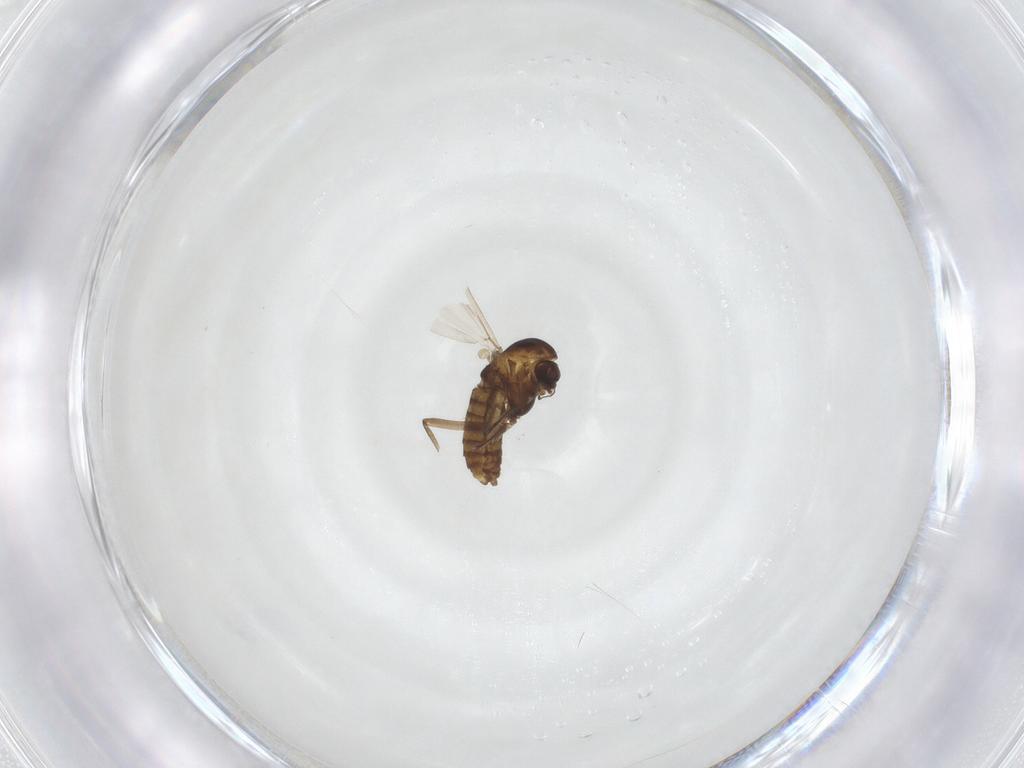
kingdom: Animalia
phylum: Arthropoda
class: Insecta
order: Diptera
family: Chironomidae
